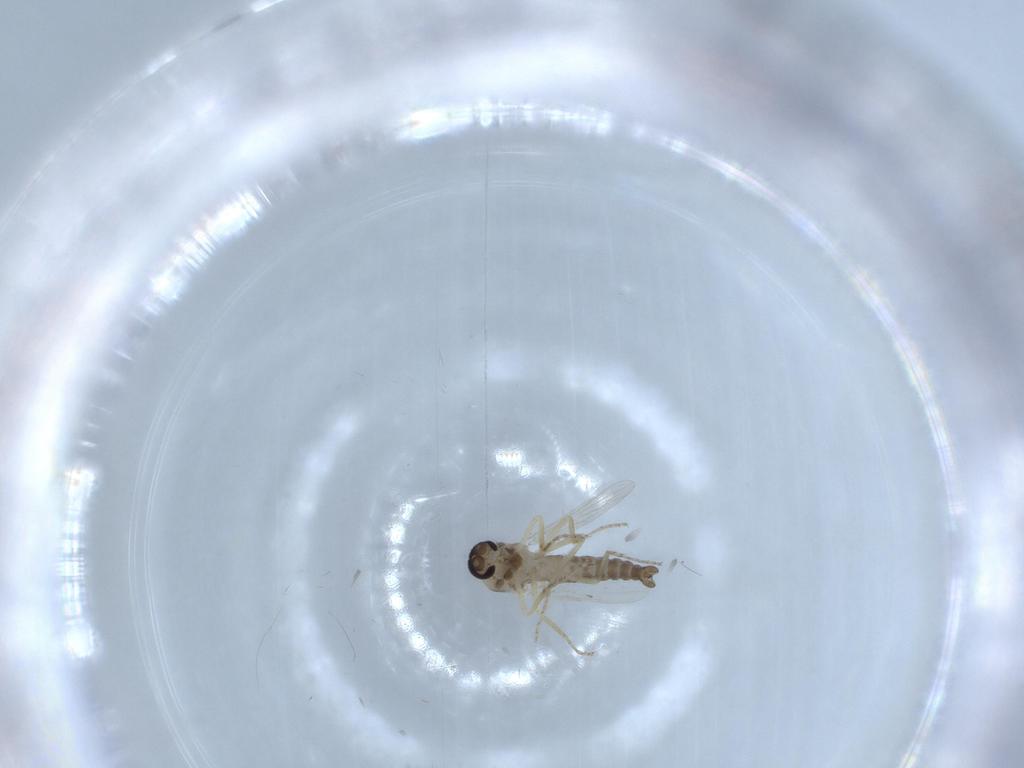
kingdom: Animalia
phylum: Arthropoda
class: Insecta
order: Diptera
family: Ceratopogonidae
